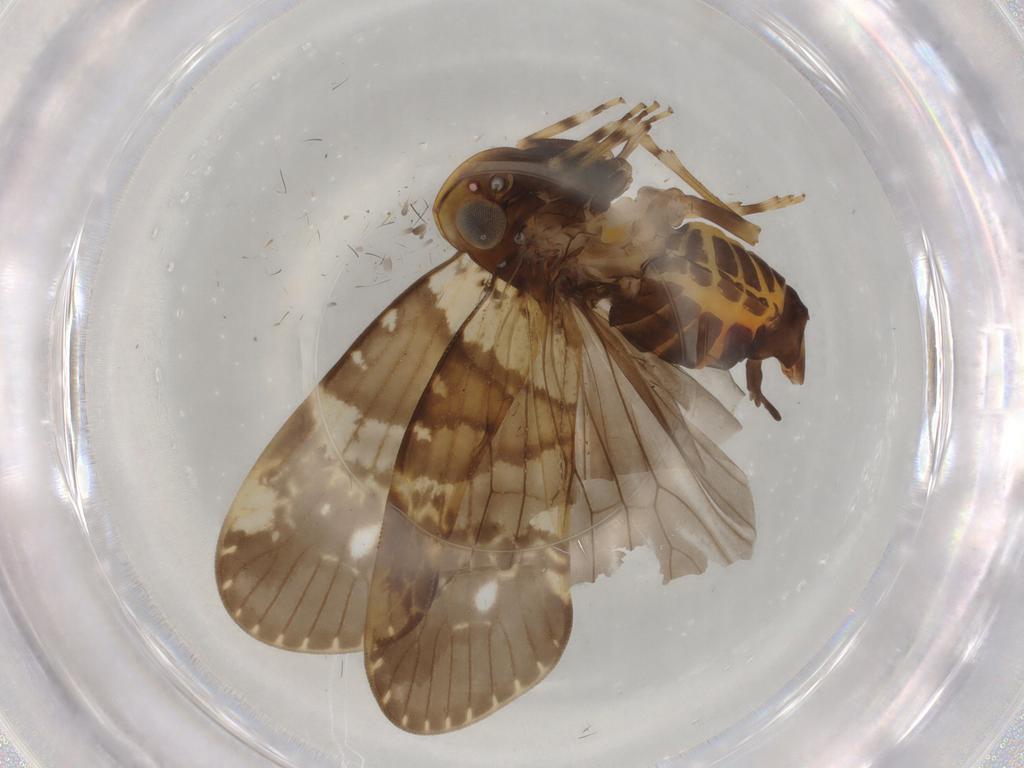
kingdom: Animalia
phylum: Arthropoda
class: Insecta
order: Hemiptera
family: Cixiidae
